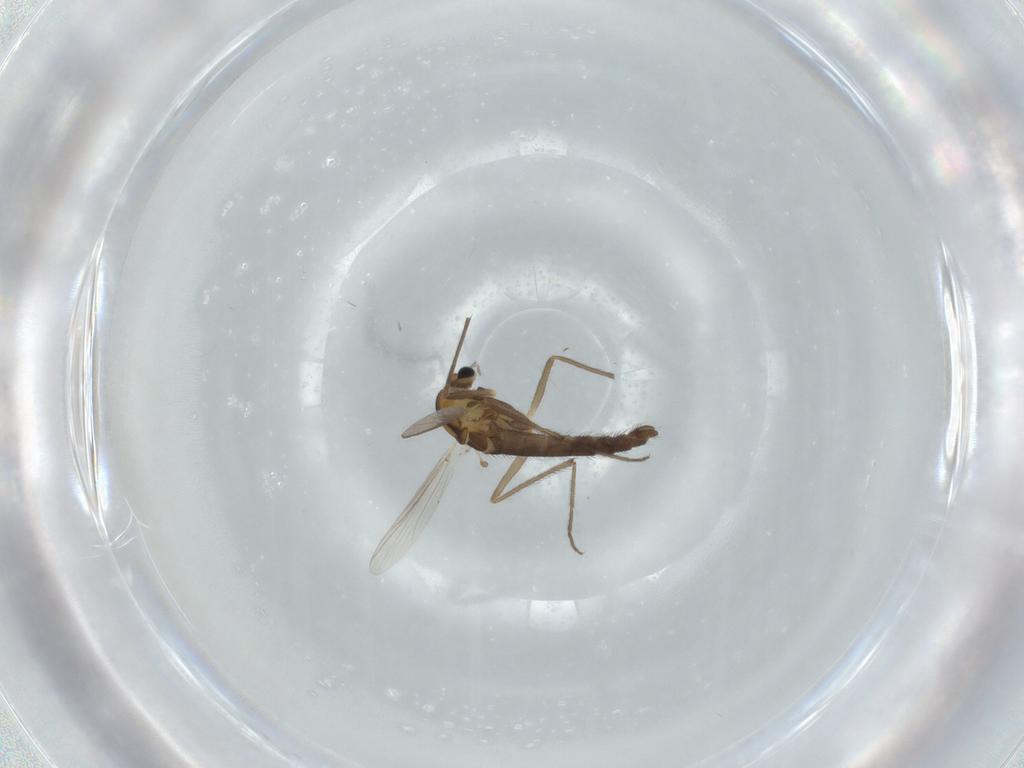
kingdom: Animalia
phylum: Arthropoda
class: Insecta
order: Diptera
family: Chironomidae
